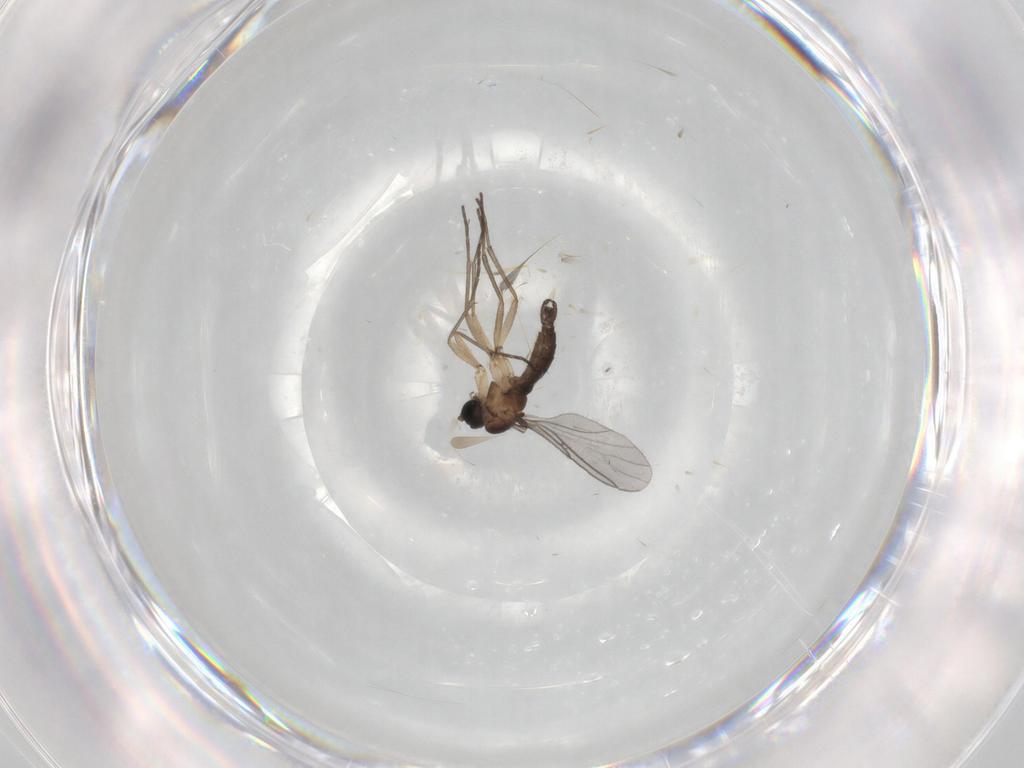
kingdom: Animalia
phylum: Arthropoda
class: Insecta
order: Diptera
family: Sciaridae
